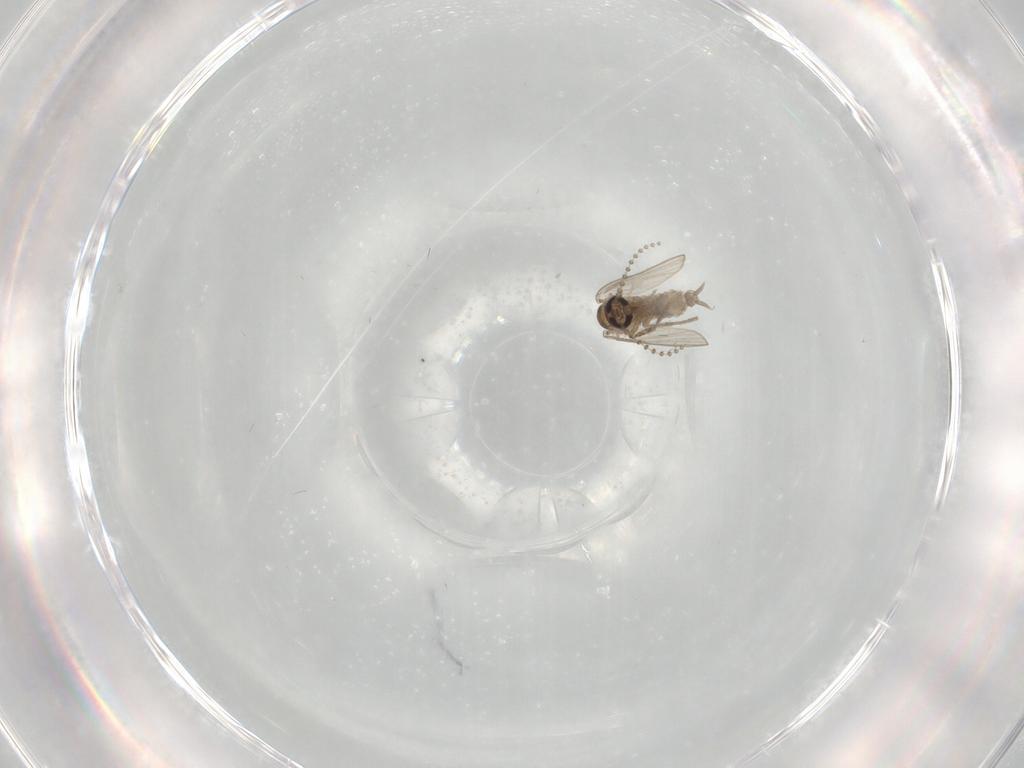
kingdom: Animalia
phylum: Arthropoda
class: Insecta
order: Diptera
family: Psychodidae
